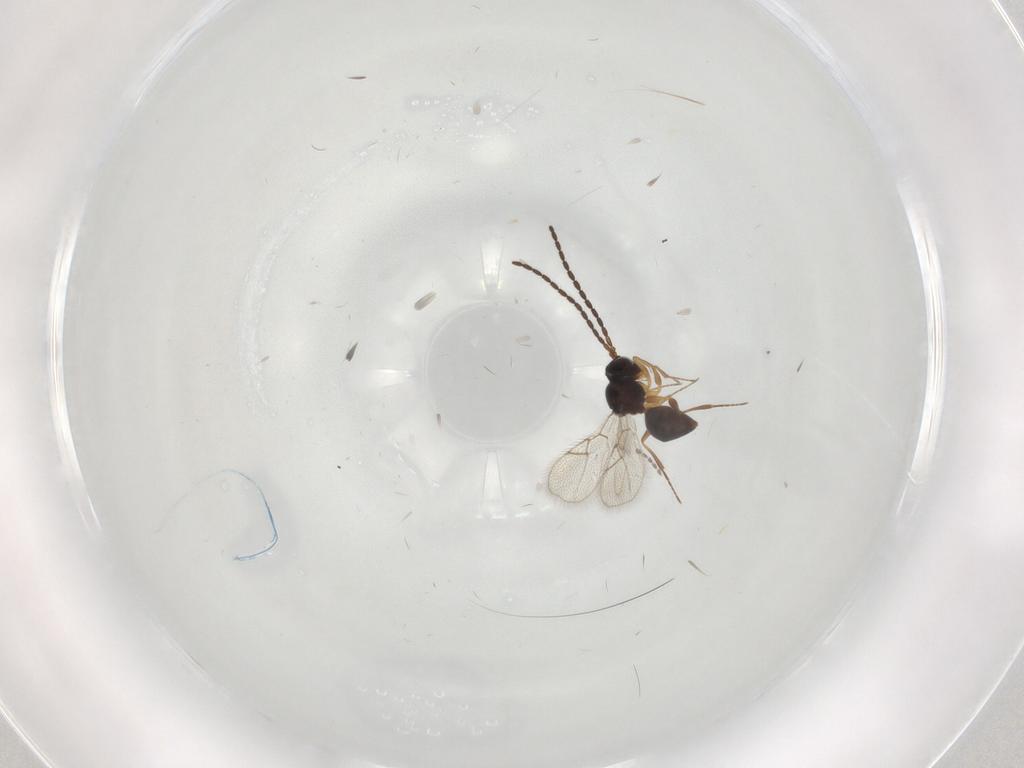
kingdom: Animalia
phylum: Arthropoda
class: Insecta
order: Hymenoptera
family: Figitidae
